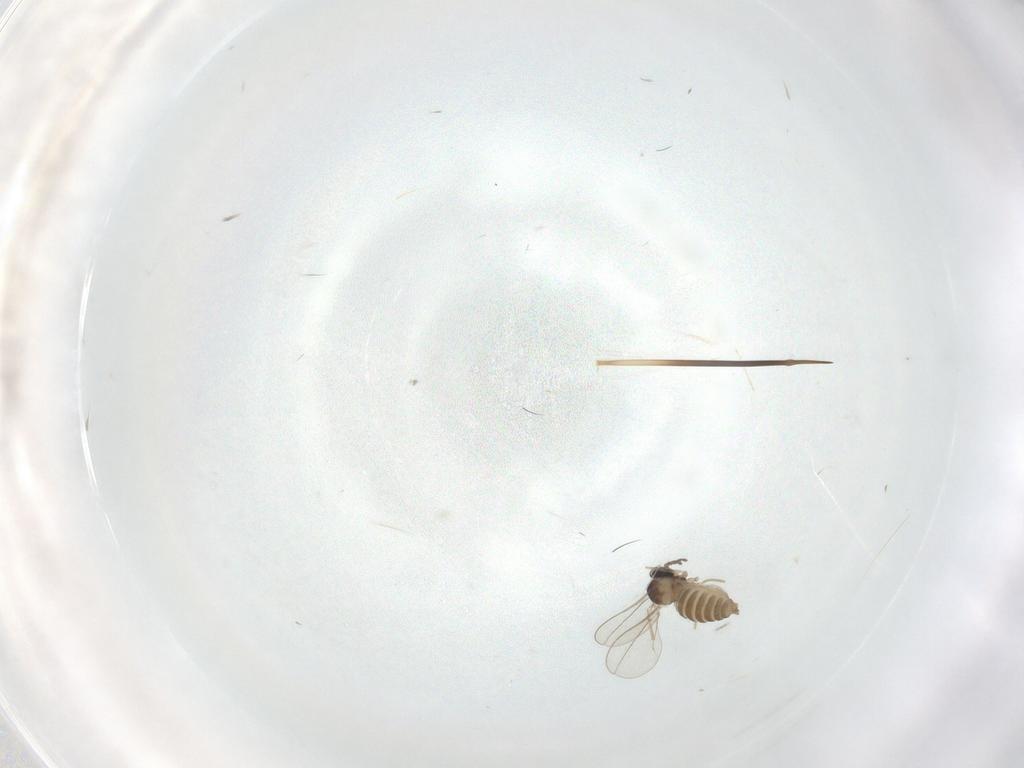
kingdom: Animalia
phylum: Arthropoda
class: Insecta
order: Diptera
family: Cecidomyiidae
